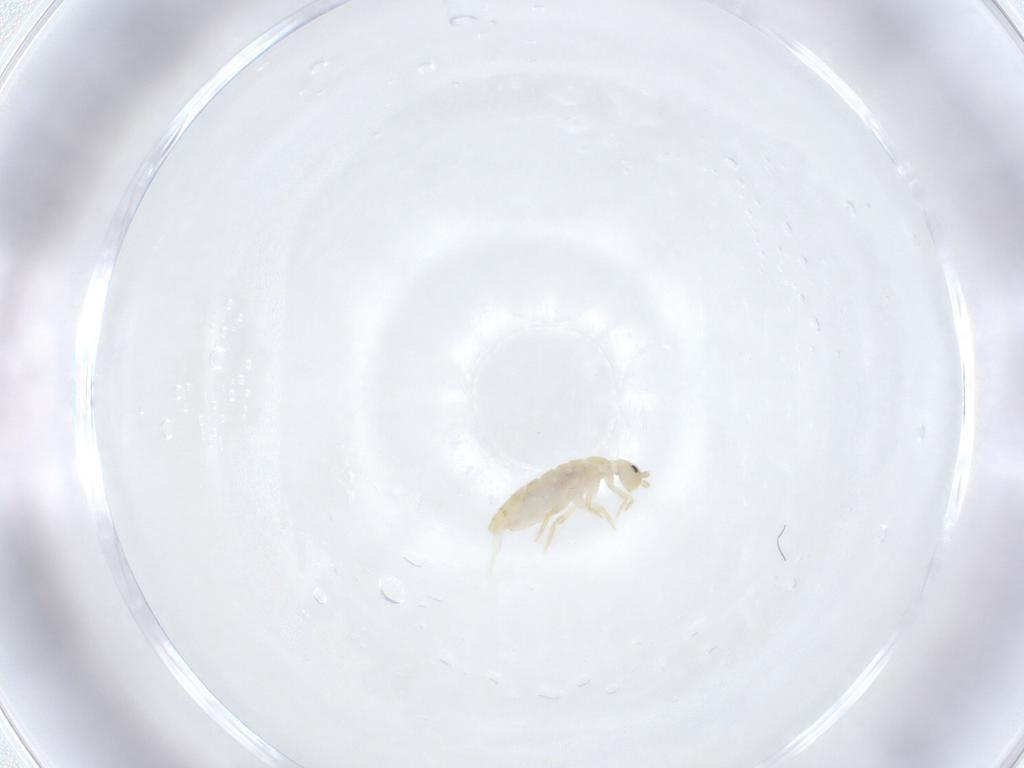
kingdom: Animalia
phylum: Arthropoda
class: Collembola
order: Entomobryomorpha
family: Entomobryidae
